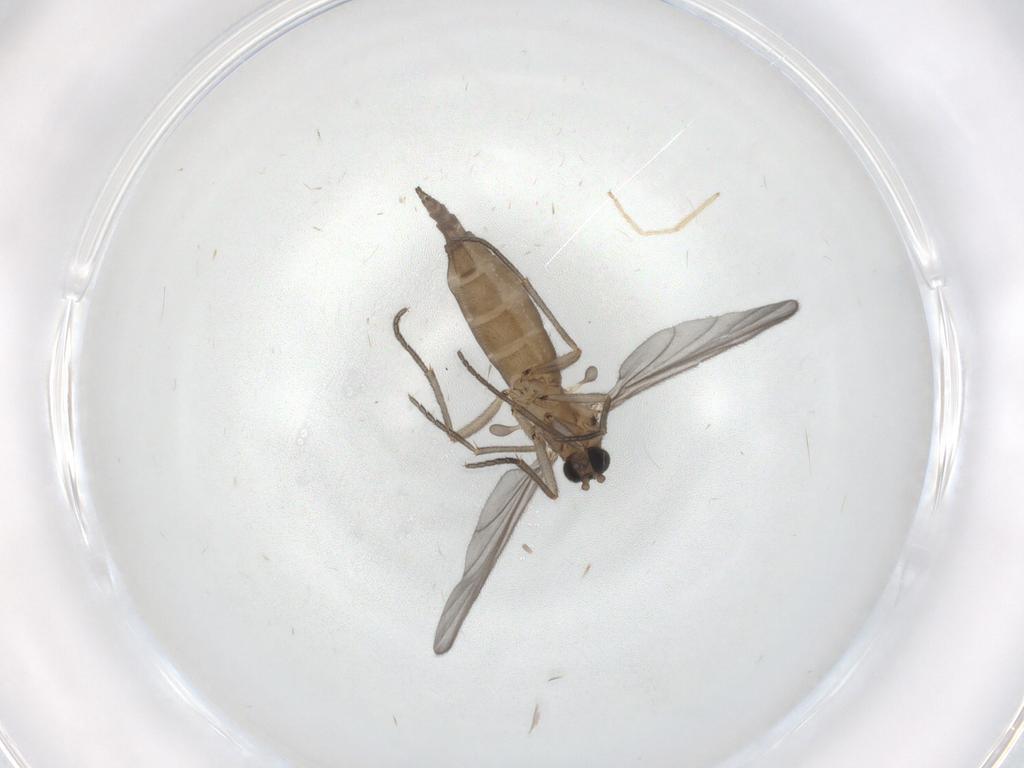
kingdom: Animalia
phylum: Arthropoda
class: Insecta
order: Diptera
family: Sciaridae
